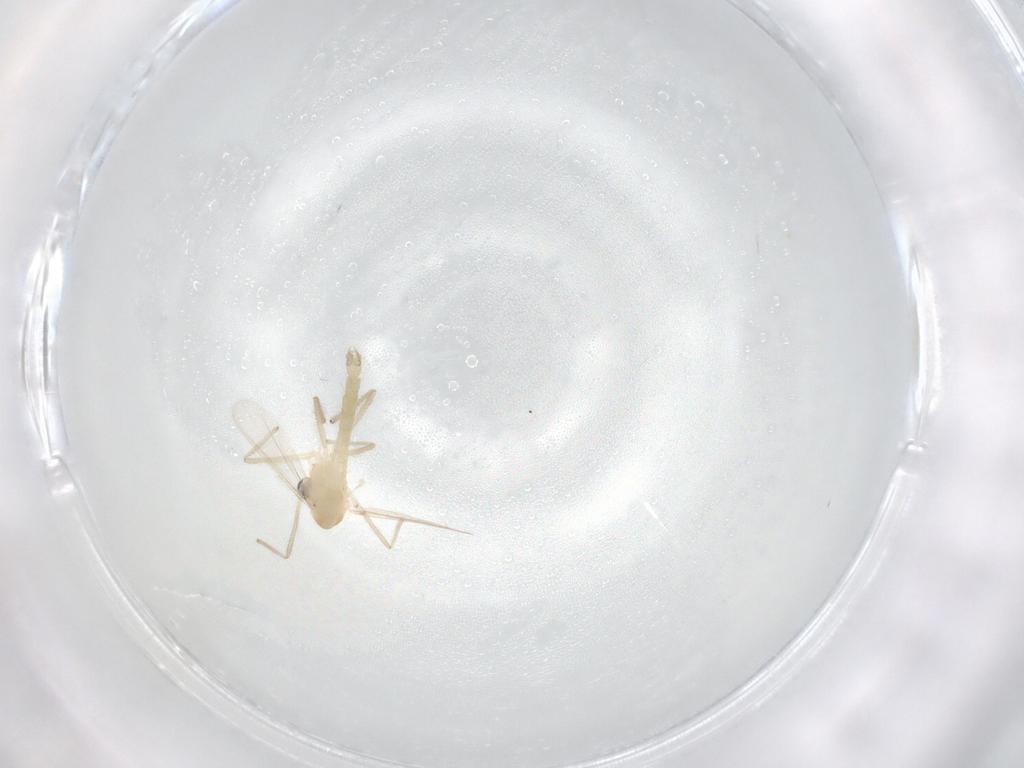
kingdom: Animalia
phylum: Arthropoda
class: Insecta
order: Diptera
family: Chironomidae
